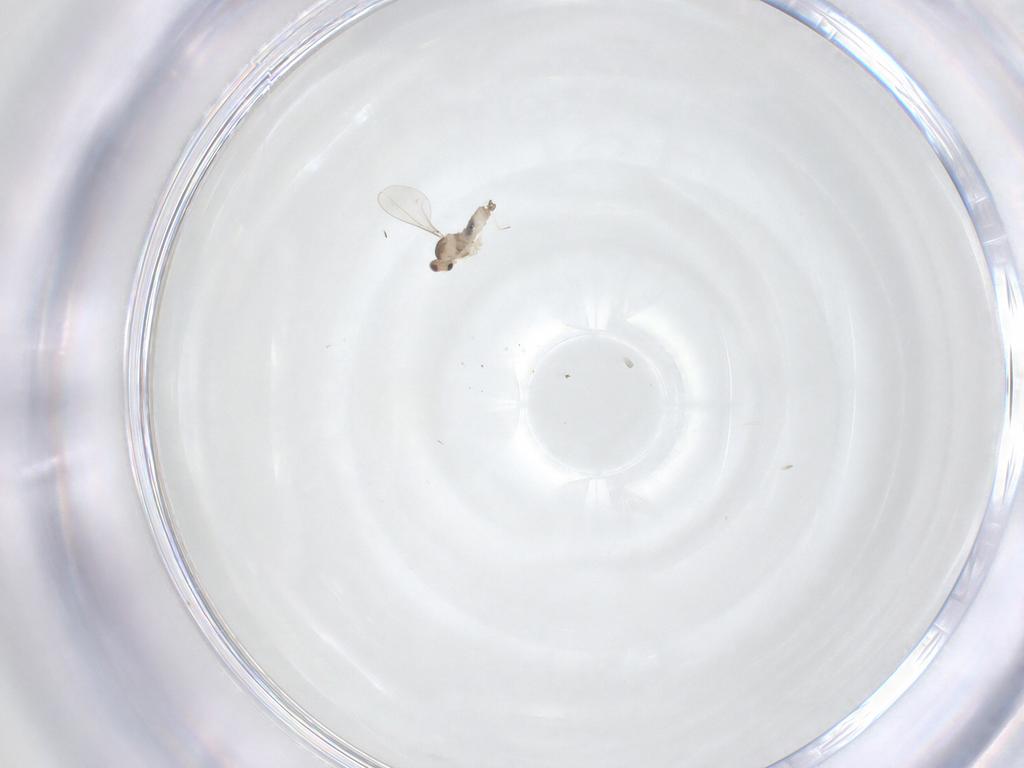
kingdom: Animalia
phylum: Arthropoda
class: Insecta
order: Diptera
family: Cecidomyiidae
